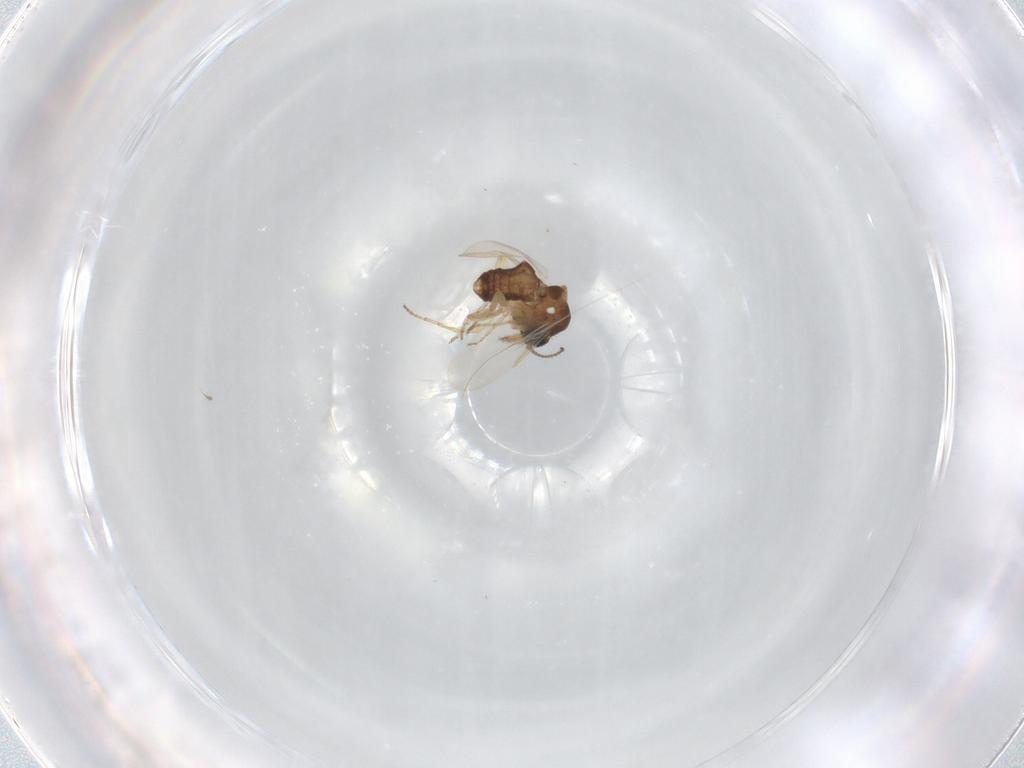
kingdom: Animalia
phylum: Arthropoda
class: Insecta
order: Diptera
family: Ceratopogonidae
